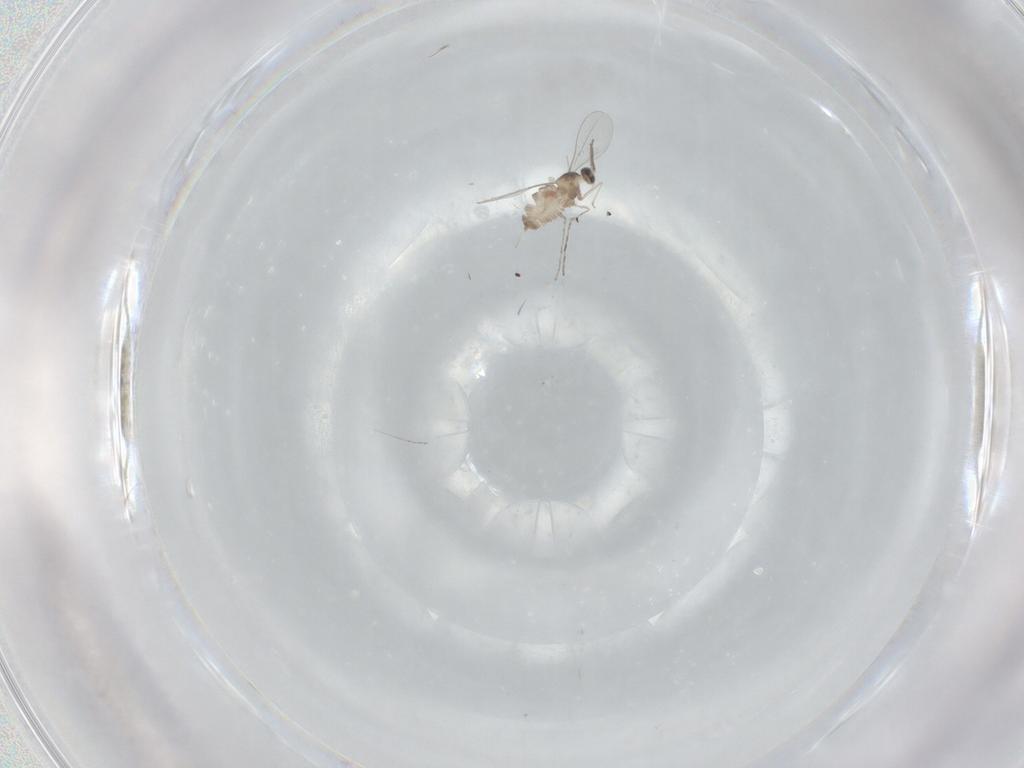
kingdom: Animalia
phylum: Arthropoda
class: Insecta
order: Diptera
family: Cecidomyiidae
